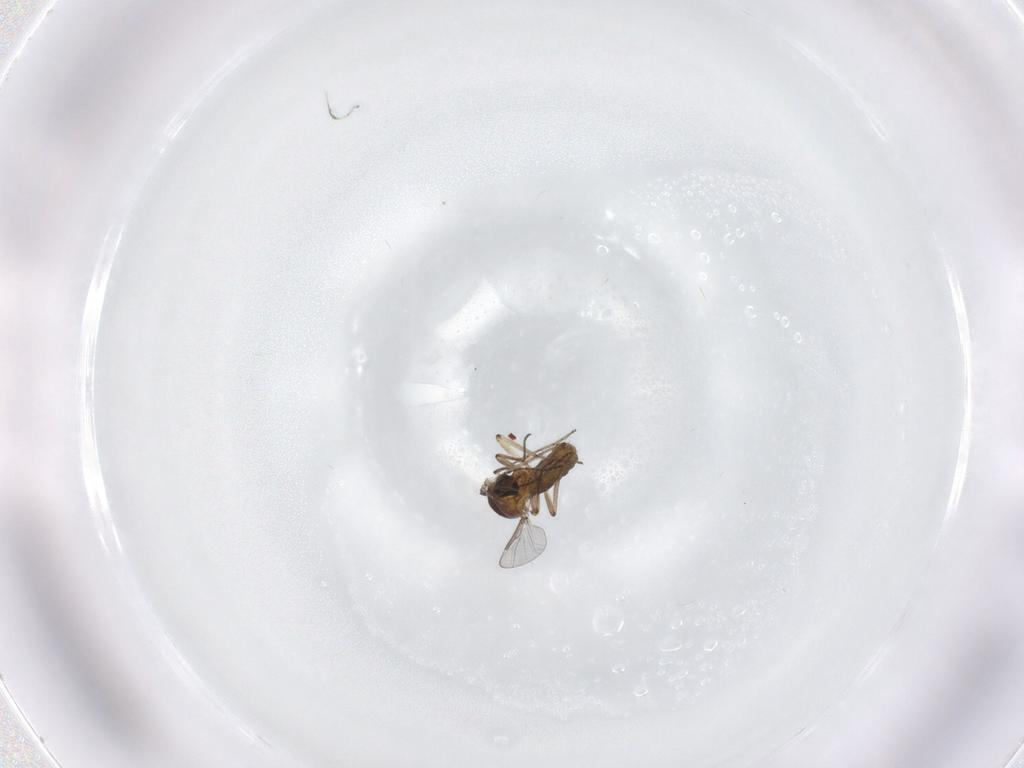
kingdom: Animalia
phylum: Arthropoda
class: Insecta
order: Diptera
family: Ceratopogonidae
